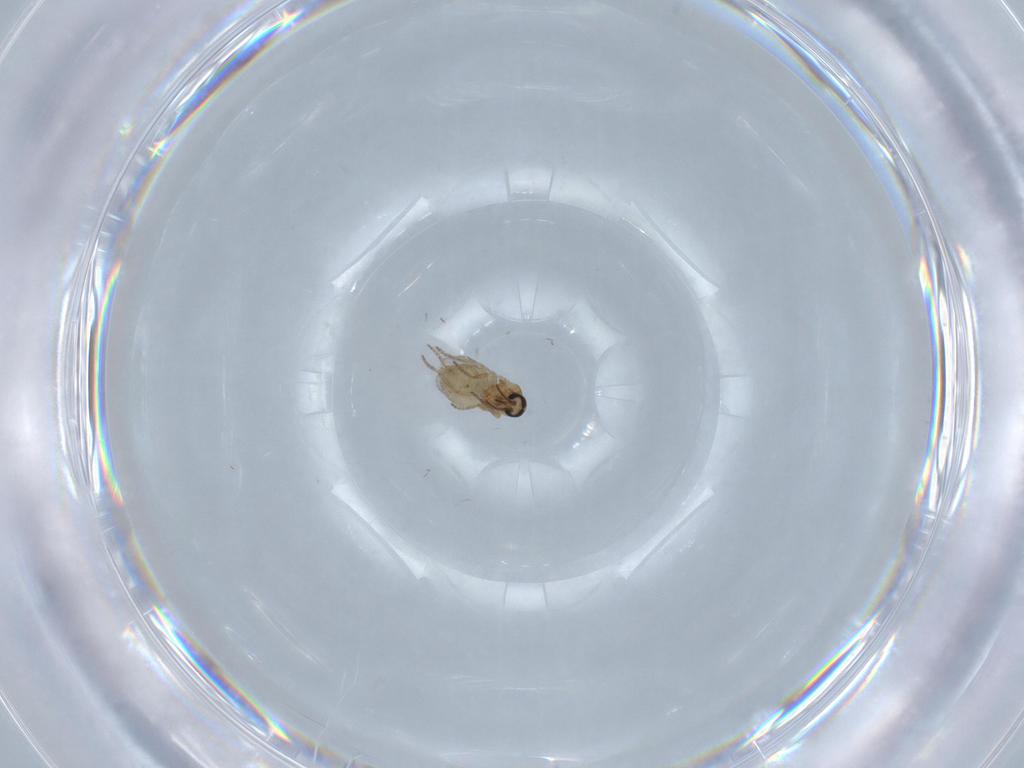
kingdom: Animalia
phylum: Arthropoda
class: Insecta
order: Diptera
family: Ceratopogonidae
